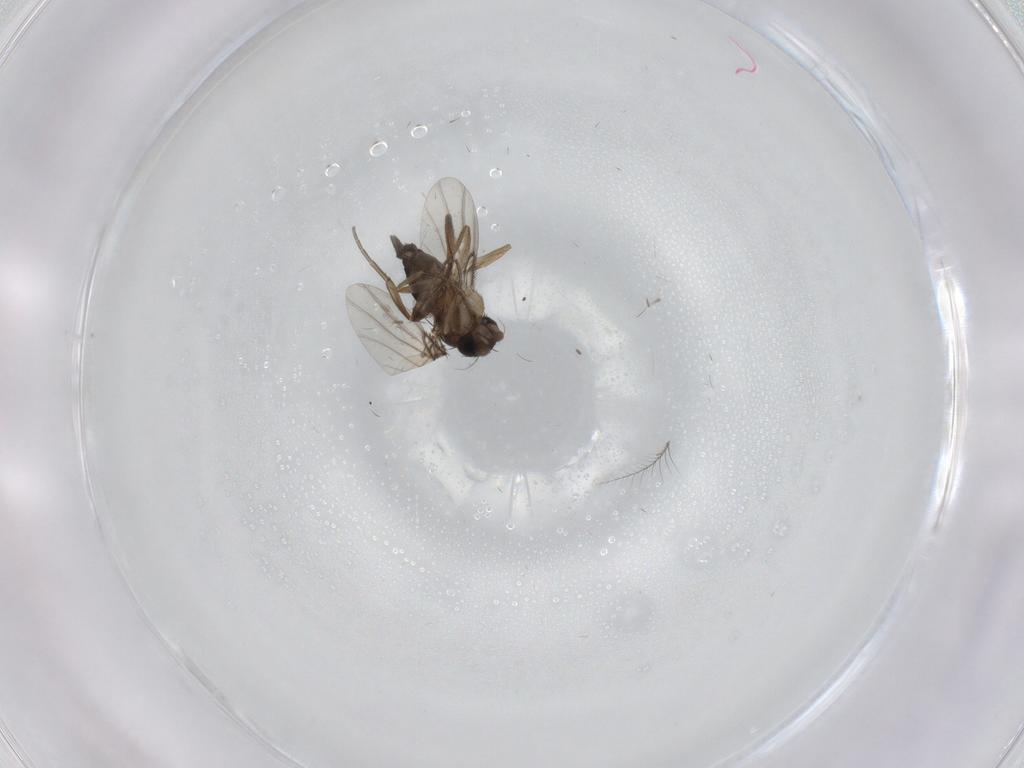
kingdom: Animalia
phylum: Arthropoda
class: Insecta
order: Diptera
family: Phoridae
